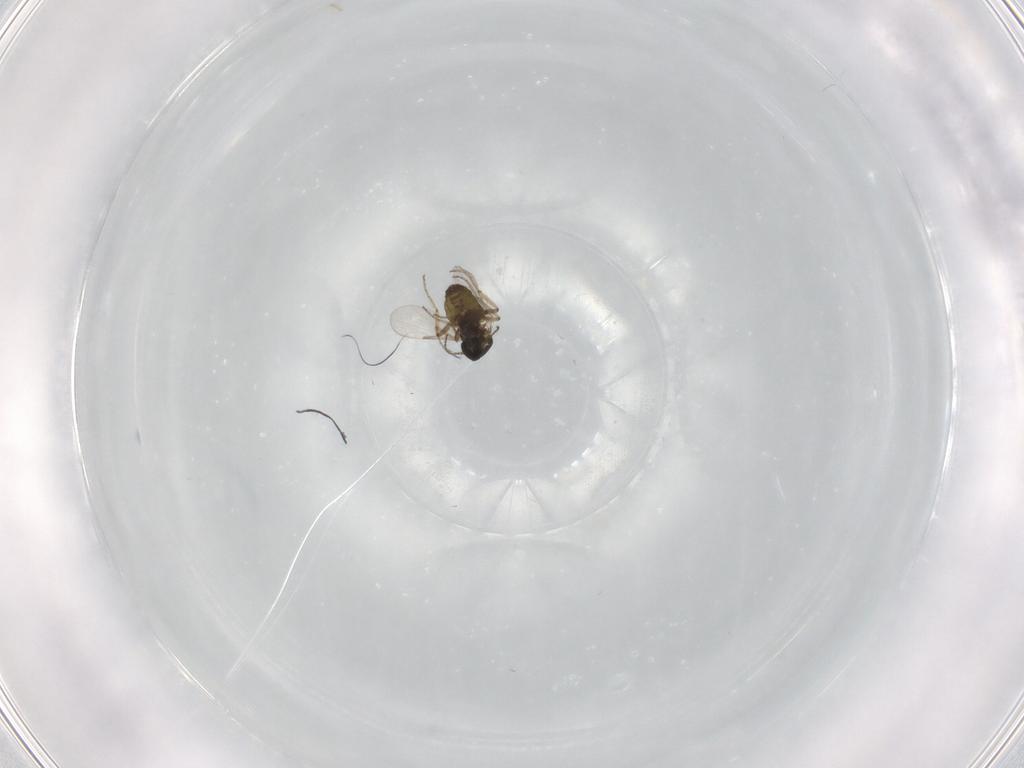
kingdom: Animalia
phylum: Arthropoda
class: Insecta
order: Diptera
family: Ceratopogonidae
